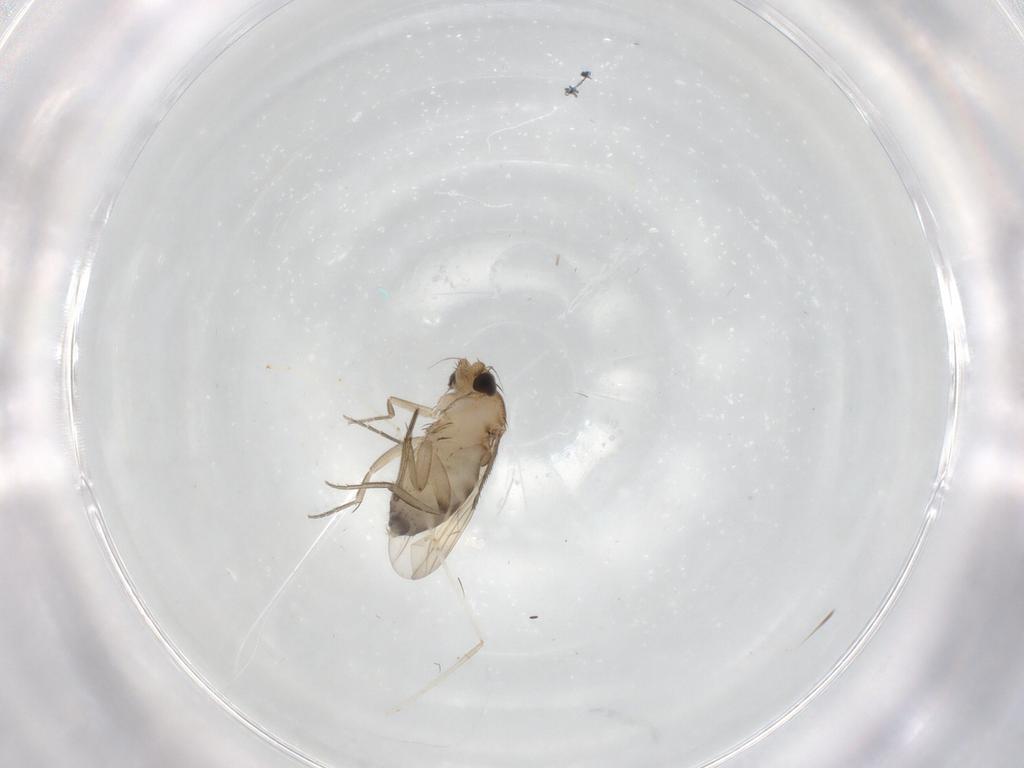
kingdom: Animalia
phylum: Arthropoda
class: Insecta
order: Diptera
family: Phoridae
